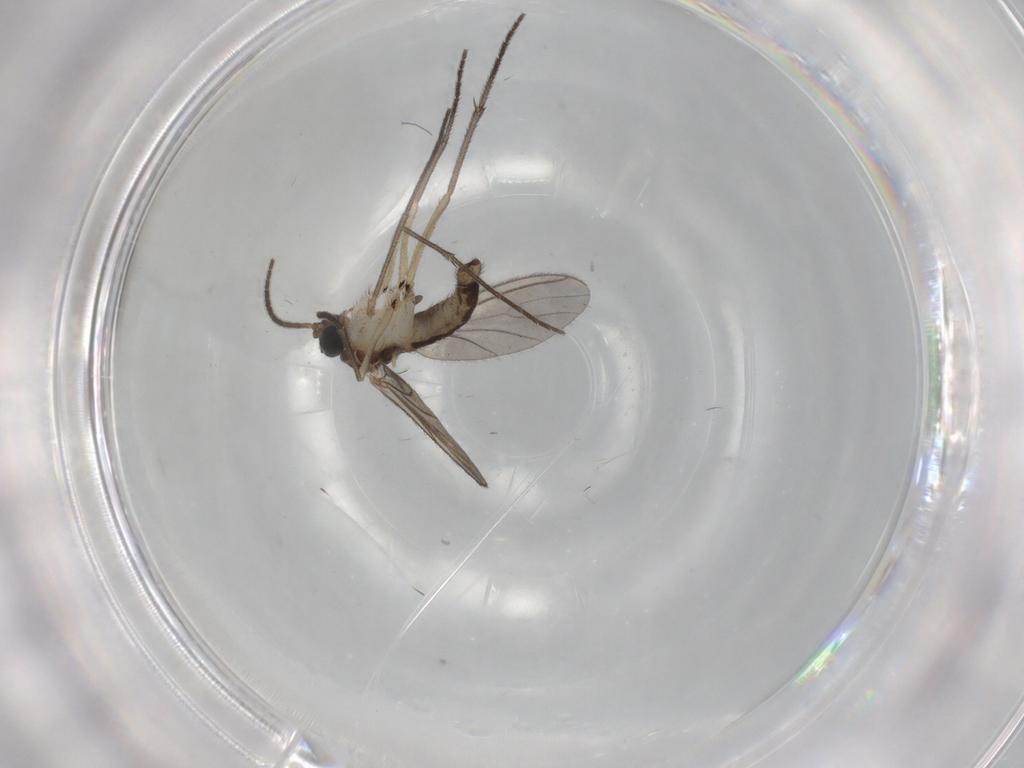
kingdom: Animalia
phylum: Arthropoda
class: Insecta
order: Diptera
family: Sciaridae
